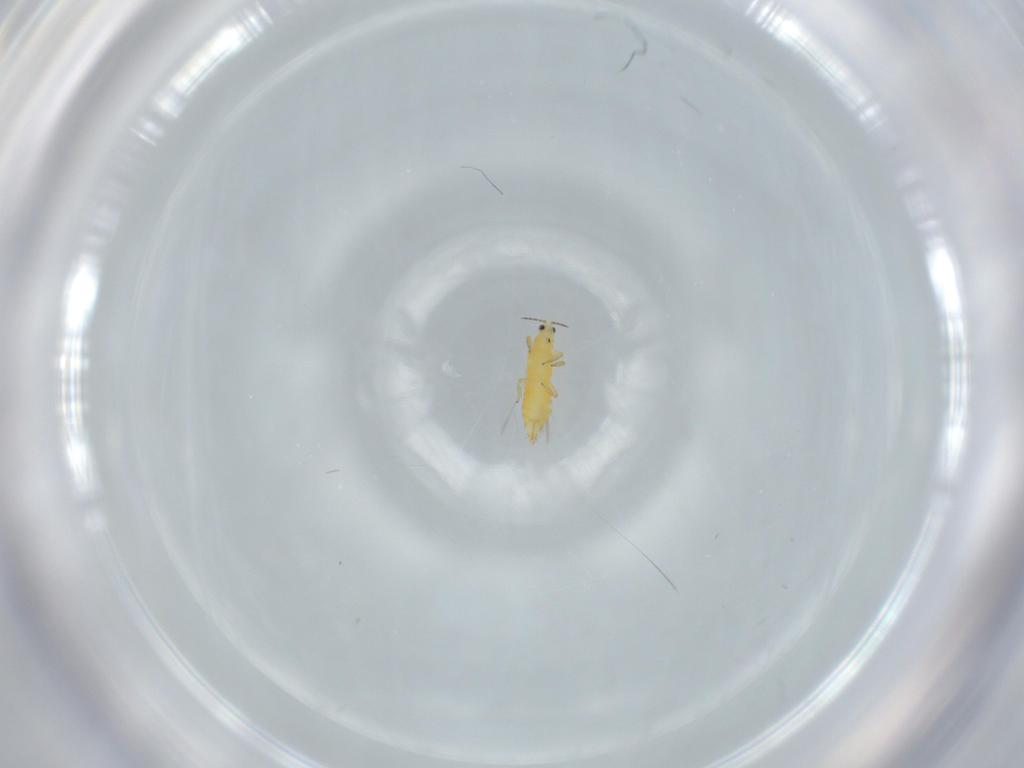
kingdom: Animalia
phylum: Arthropoda
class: Insecta
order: Thysanoptera
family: Thripidae
